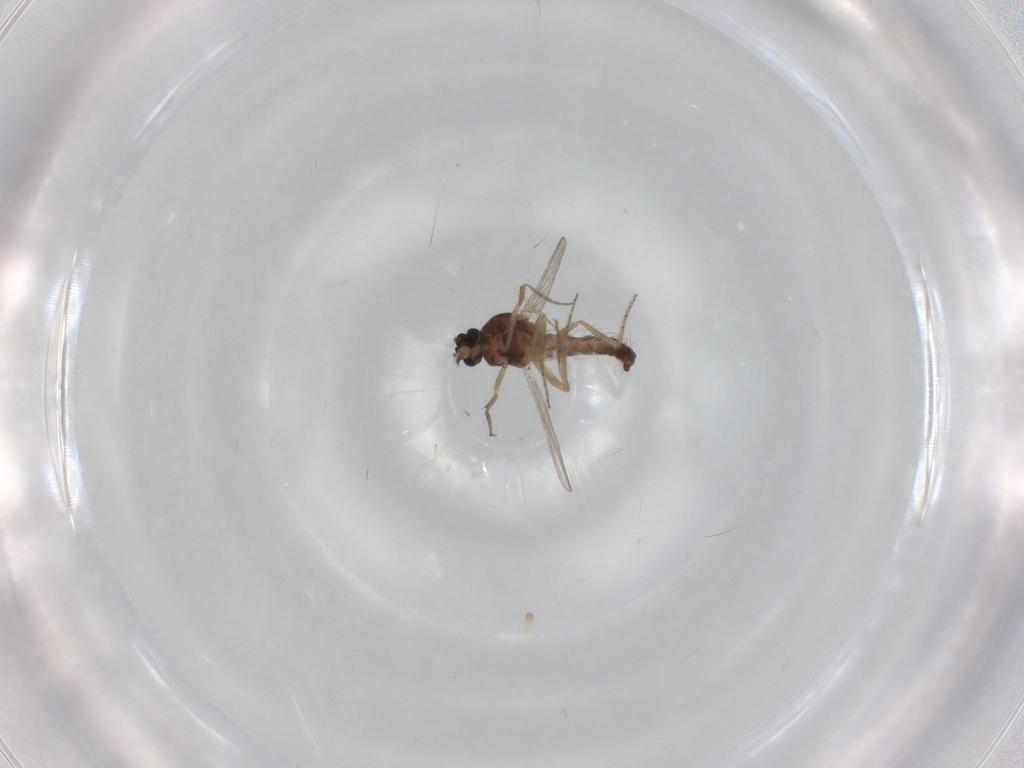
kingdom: Animalia
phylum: Arthropoda
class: Insecta
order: Diptera
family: Ceratopogonidae
